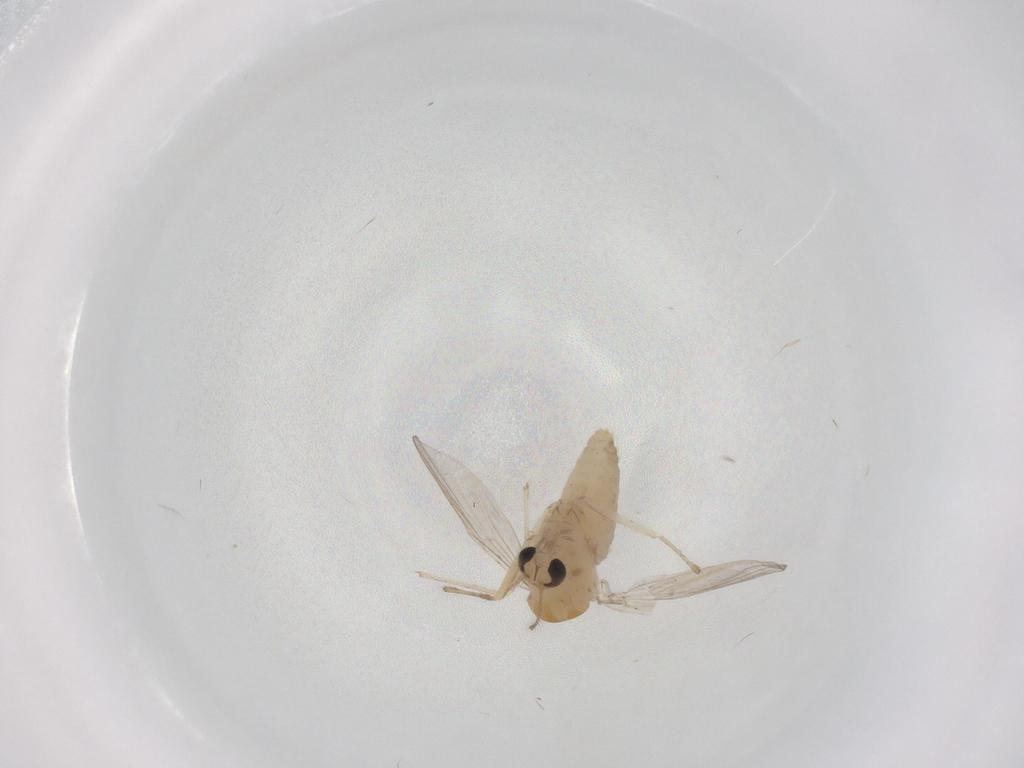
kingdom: Animalia
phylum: Arthropoda
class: Insecta
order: Diptera
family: Chironomidae
